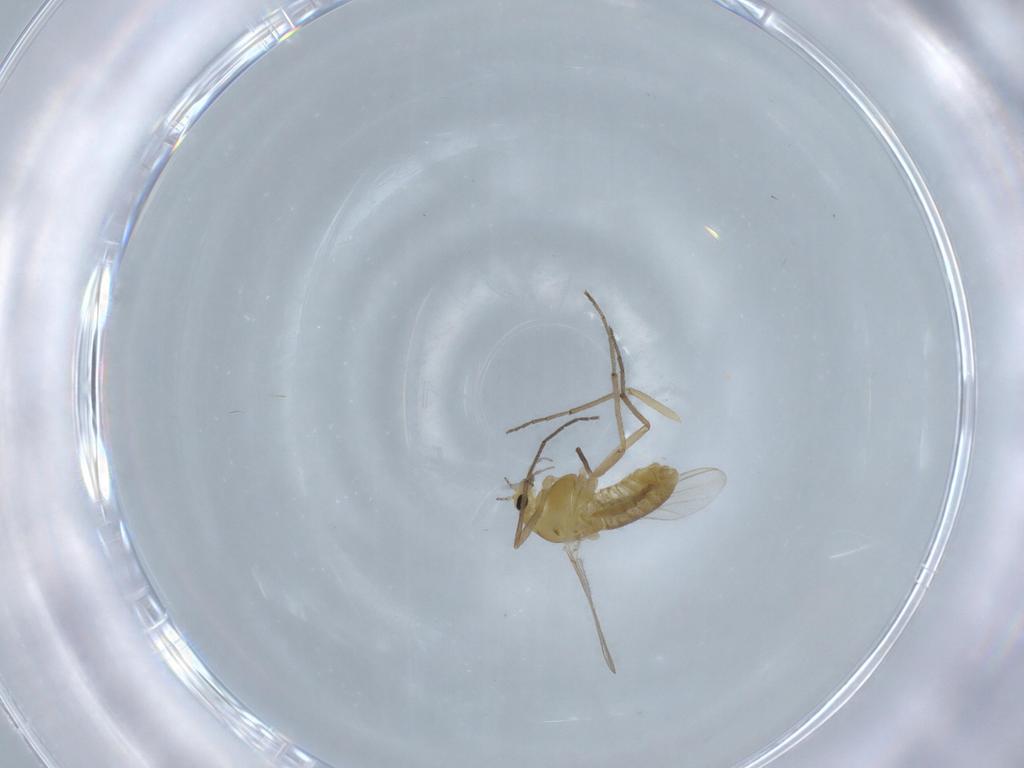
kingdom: Animalia
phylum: Arthropoda
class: Insecta
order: Diptera
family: Chironomidae
